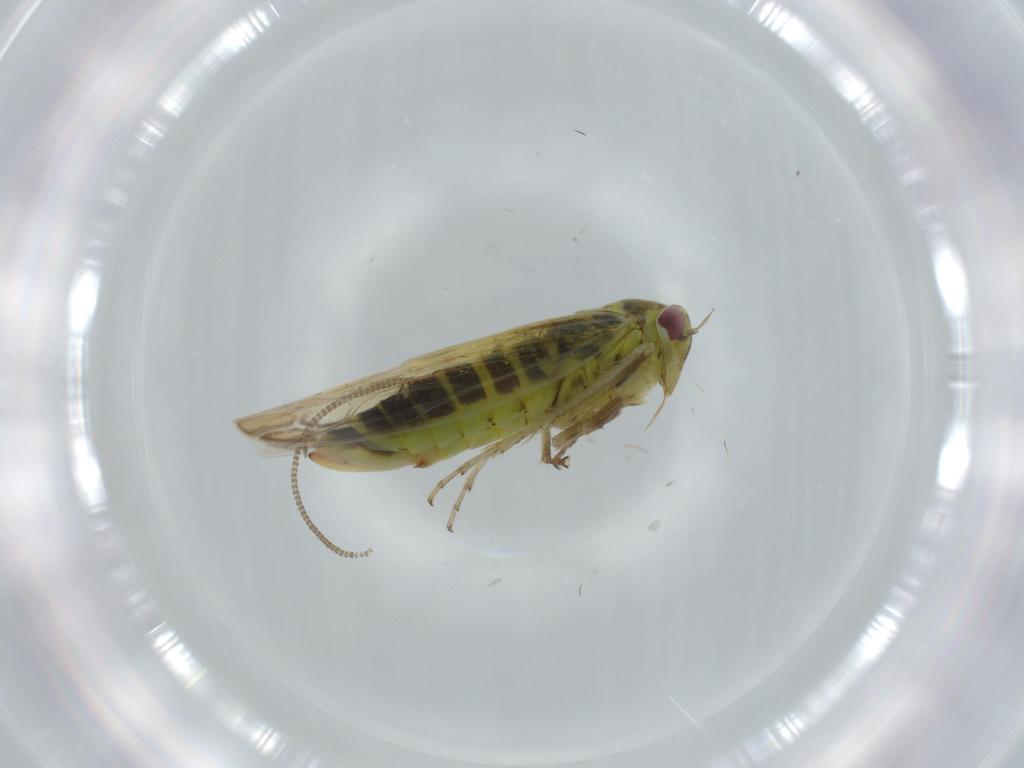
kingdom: Animalia
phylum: Arthropoda
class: Insecta
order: Hemiptera
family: Cicadellidae
